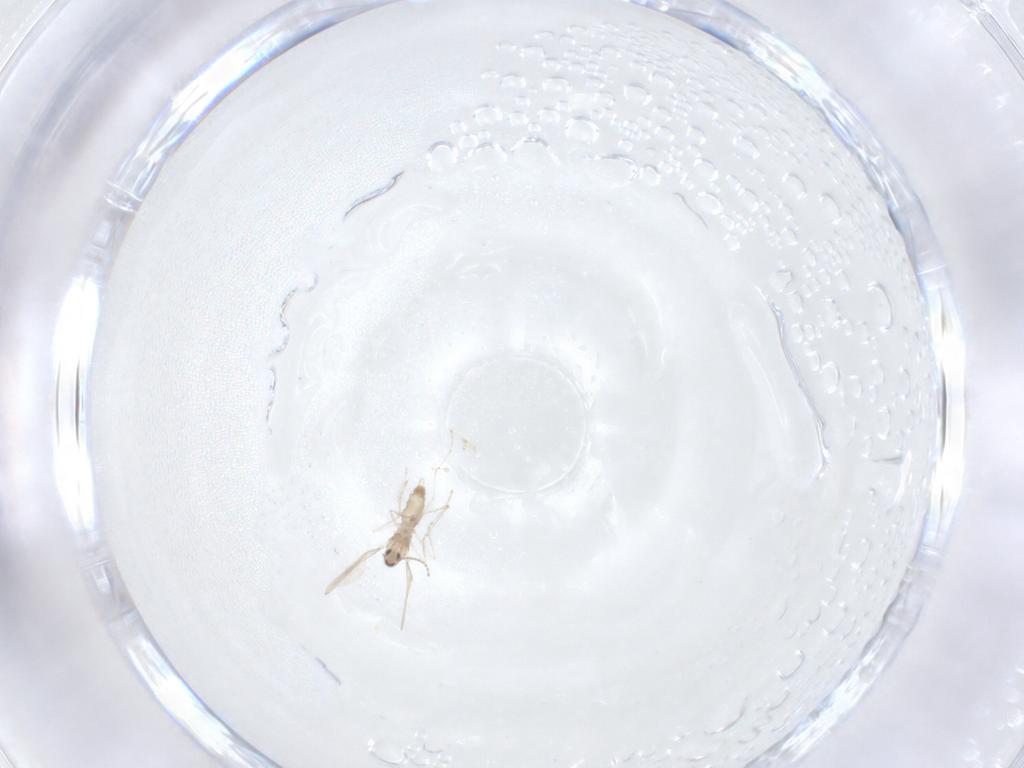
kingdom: Animalia
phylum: Arthropoda
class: Insecta
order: Diptera
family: Cecidomyiidae
